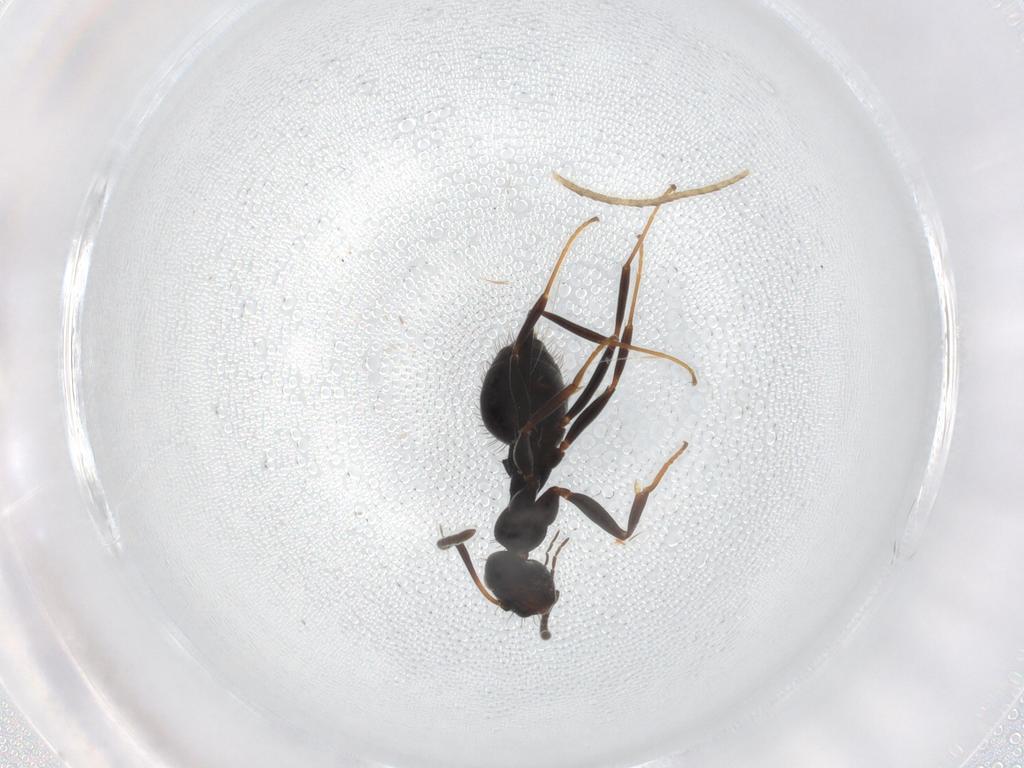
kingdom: Animalia
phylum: Arthropoda
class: Insecta
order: Hymenoptera
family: Formicidae
